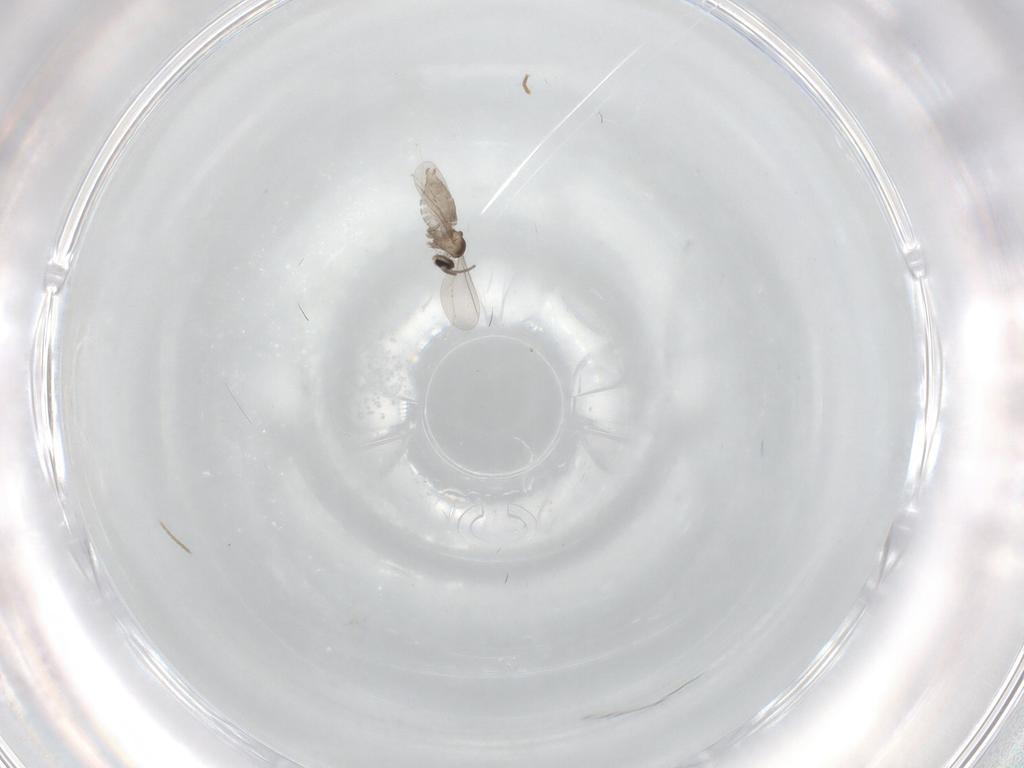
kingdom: Animalia
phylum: Arthropoda
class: Insecta
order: Diptera
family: Cecidomyiidae
